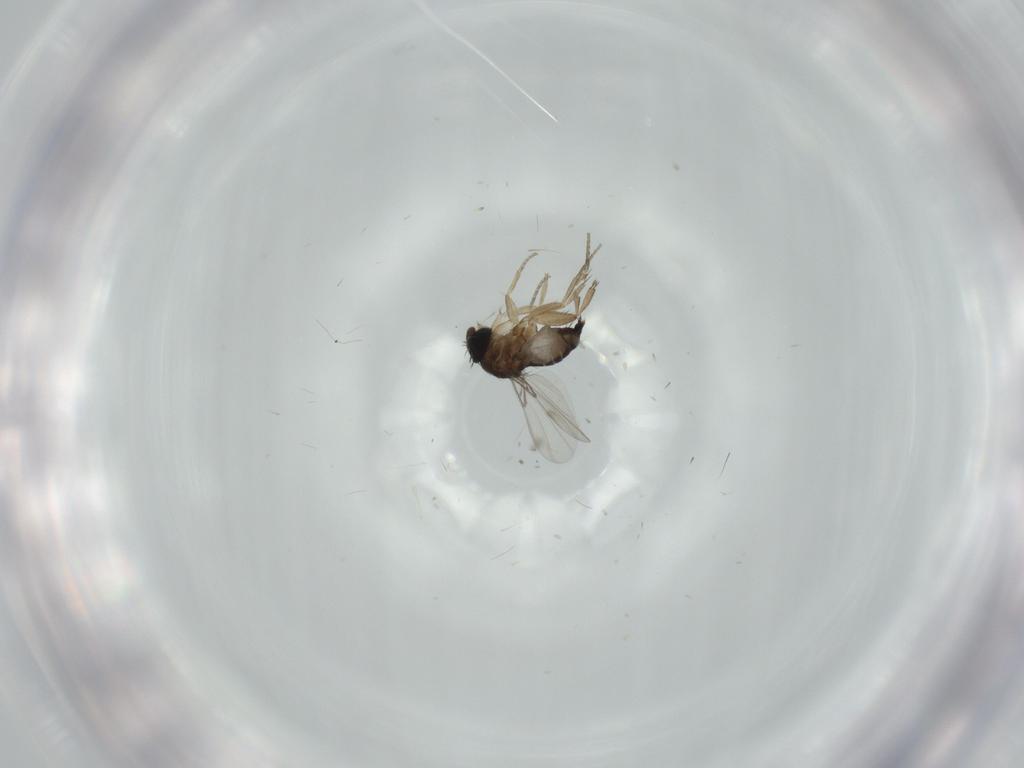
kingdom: Animalia
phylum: Arthropoda
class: Insecta
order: Diptera
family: Phoridae
